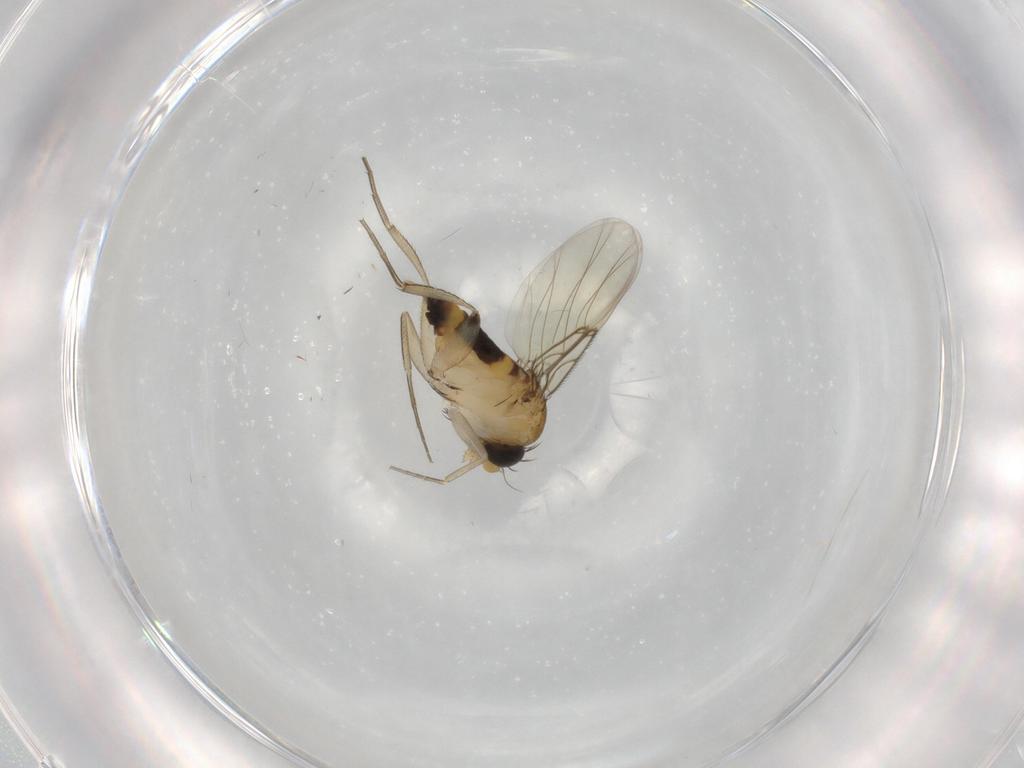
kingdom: Animalia
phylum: Arthropoda
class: Insecta
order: Diptera
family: Phoridae
